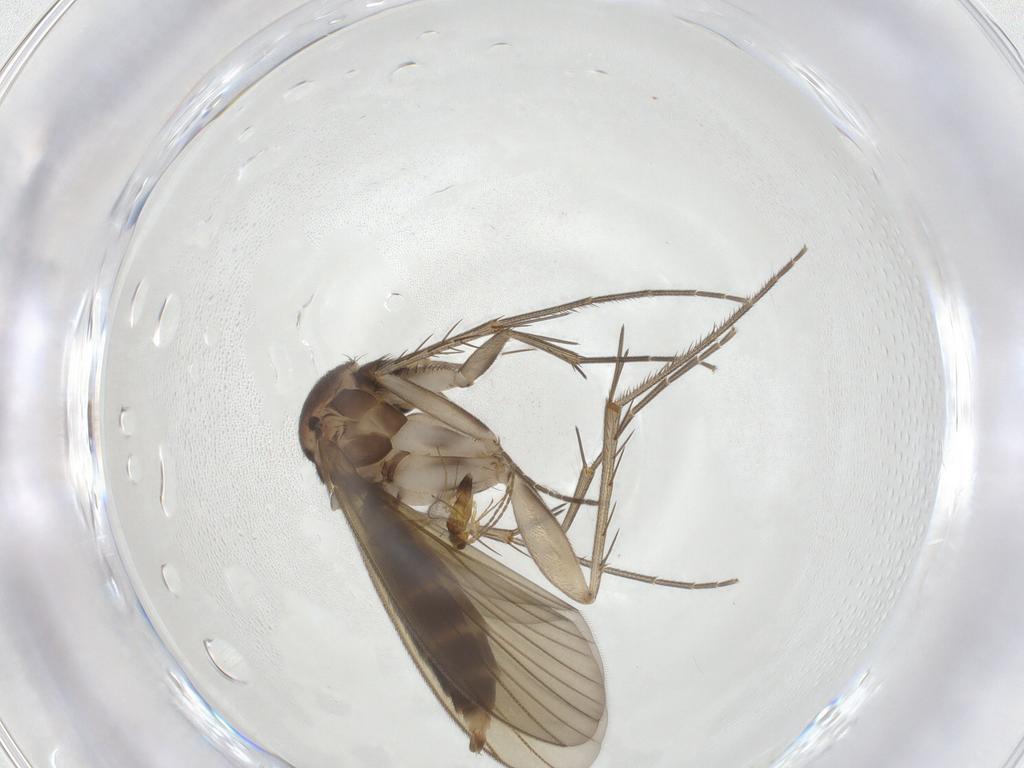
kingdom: Animalia
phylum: Arthropoda
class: Insecta
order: Diptera
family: Mycetophilidae
